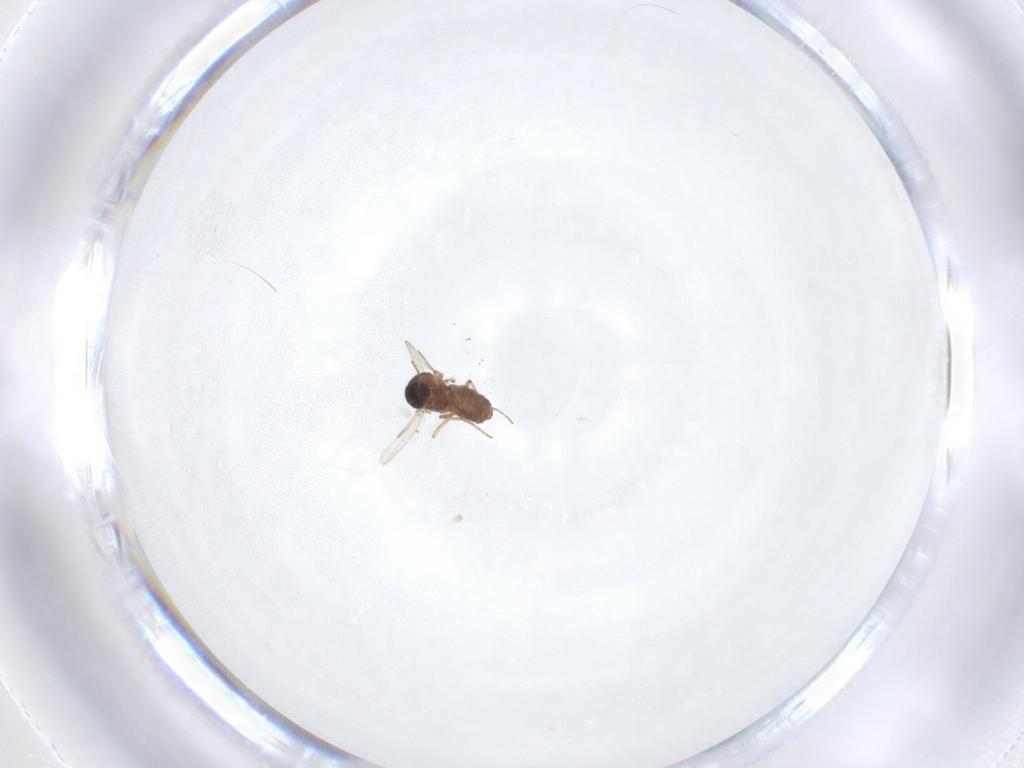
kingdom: Animalia
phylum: Arthropoda
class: Insecta
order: Diptera
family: Ceratopogonidae
